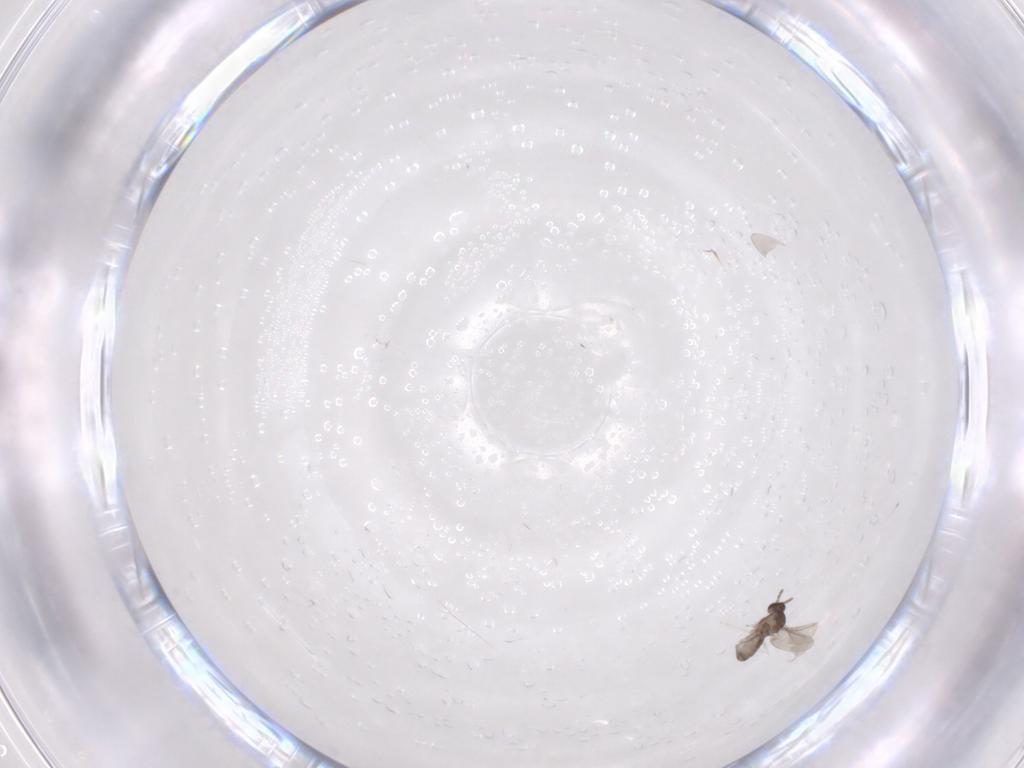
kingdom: Animalia
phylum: Arthropoda
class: Insecta
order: Diptera
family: Cecidomyiidae
